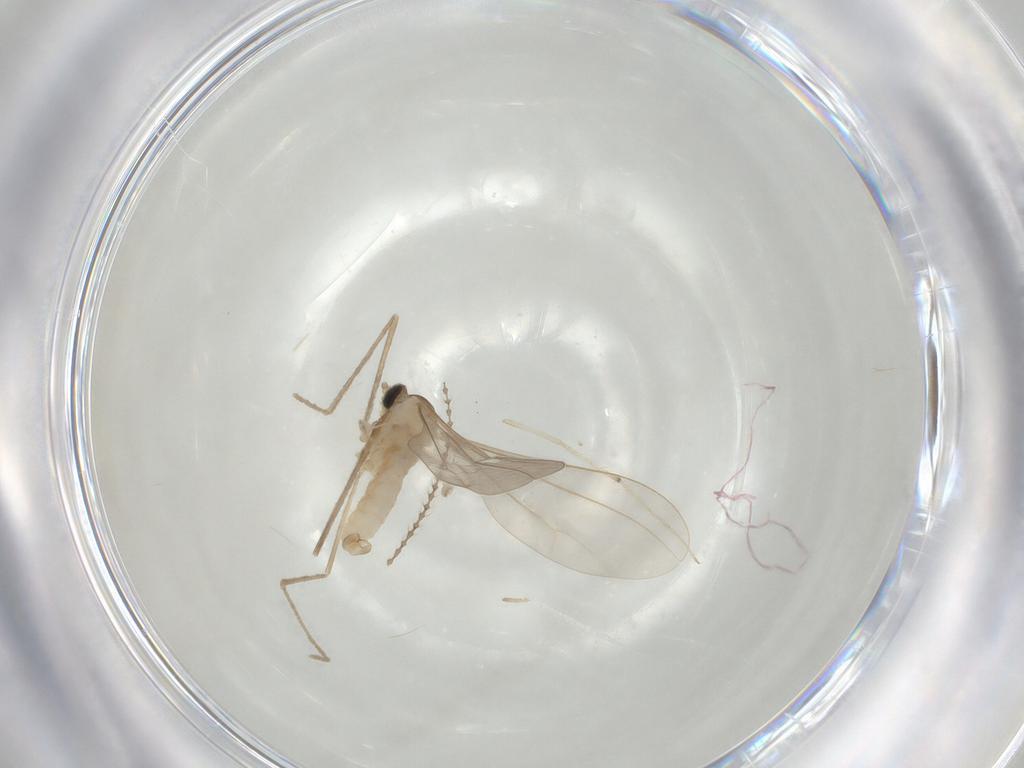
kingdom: Animalia
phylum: Arthropoda
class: Insecta
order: Diptera
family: Cecidomyiidae
